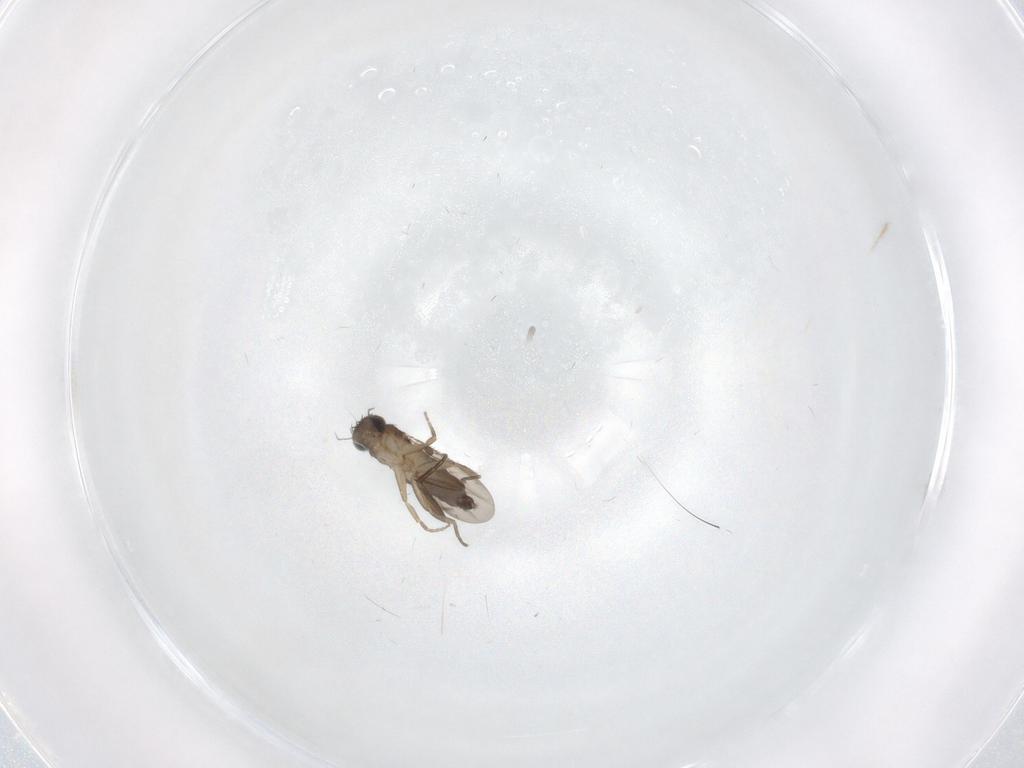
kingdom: Animalia
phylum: Arthropoda
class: Insecta
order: Diptera
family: Phoridae
